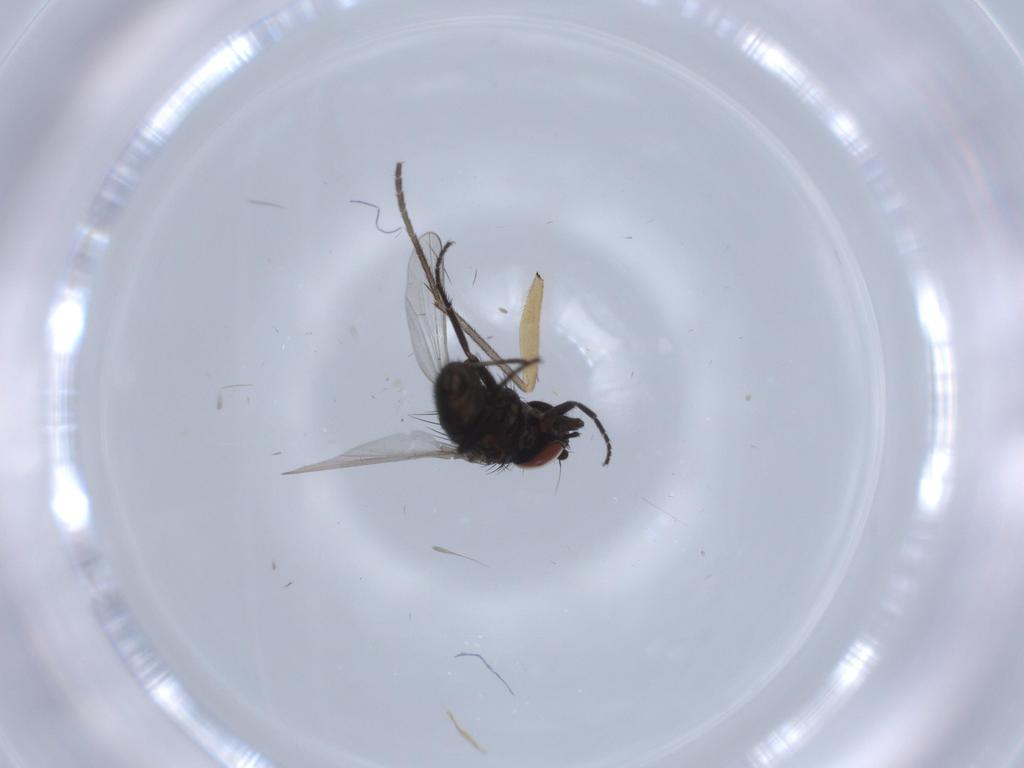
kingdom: Animalia
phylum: Arthropoda
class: Insecta
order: Diptera
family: Milichiidae
